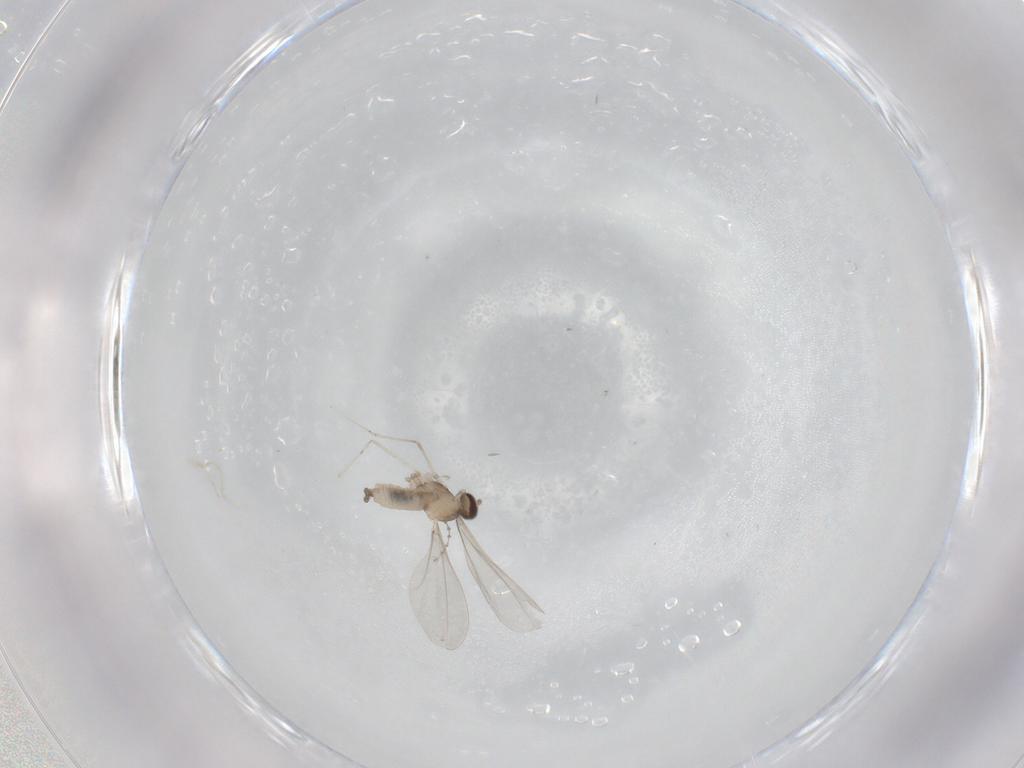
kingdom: Animalia
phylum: Arthropoda
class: Insecta
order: Diptera
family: Cecidomyiidae
